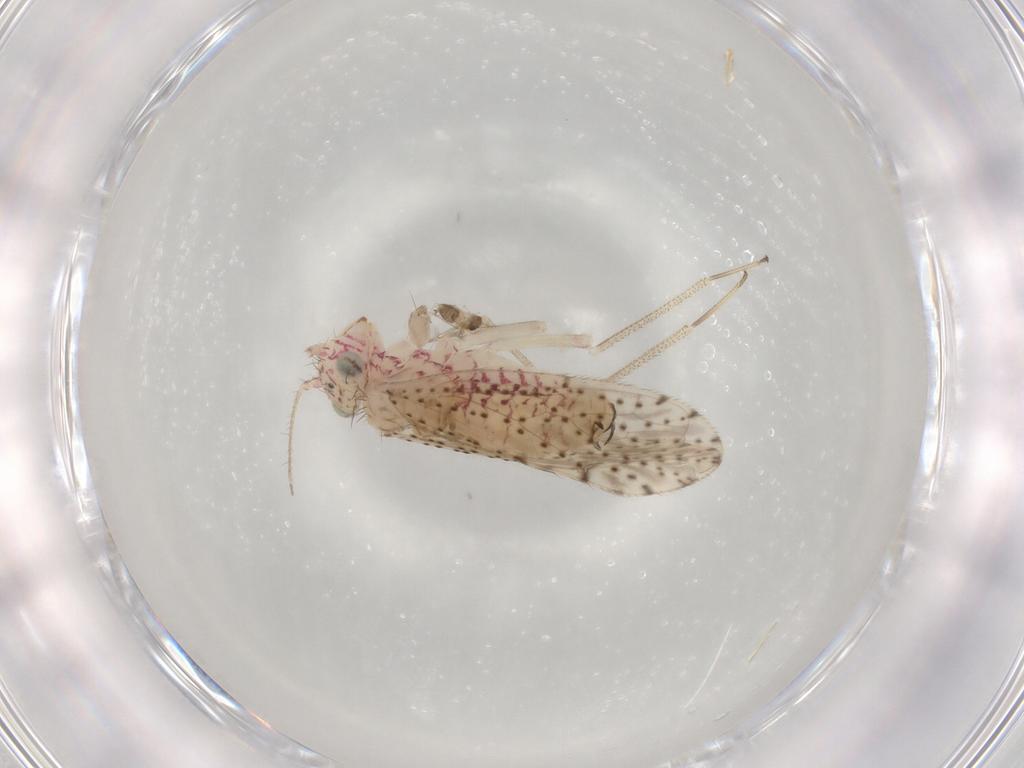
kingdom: Animalia
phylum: Arthropoda
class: Insecta
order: Psocodea
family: Philotarsidae
